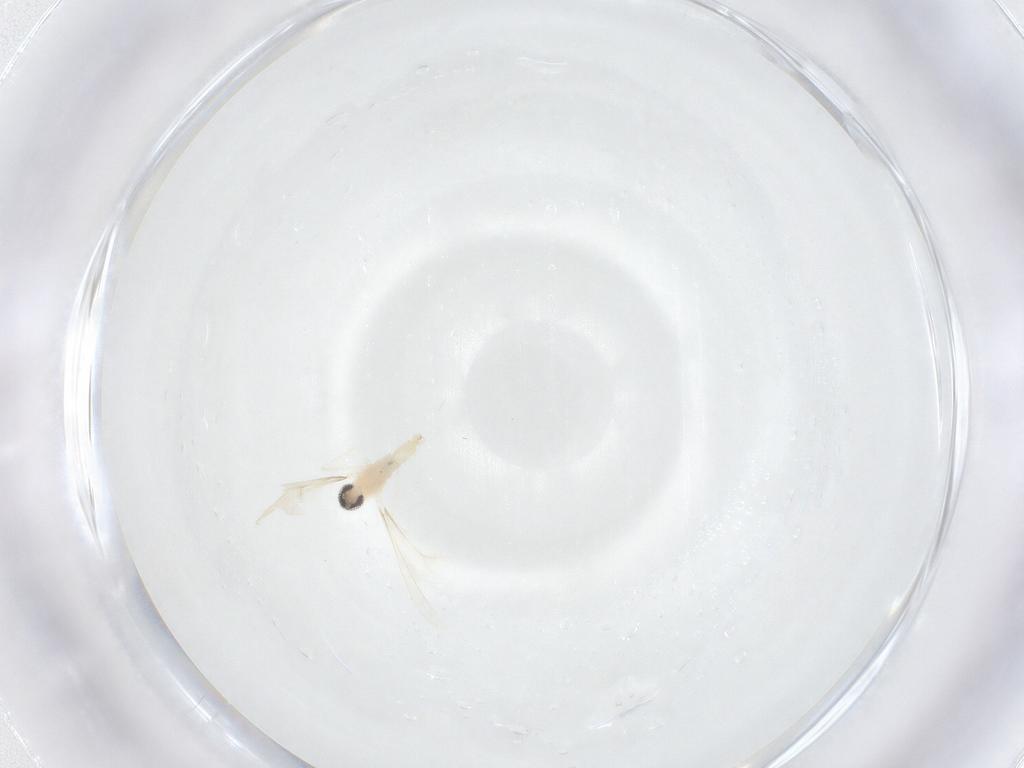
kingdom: Animalia
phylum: Arthropoda
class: Insecta
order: Diptera
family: Cecidomyiidae
